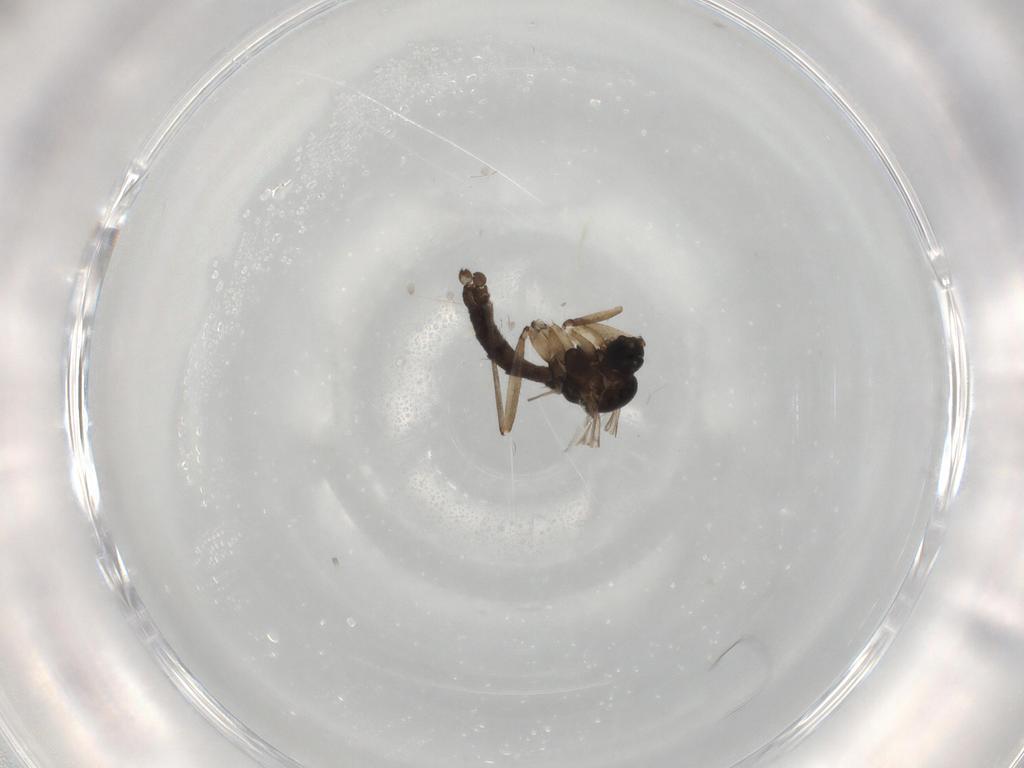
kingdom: Animalia
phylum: Arthropoda
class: Insecta
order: Diptera
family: Sciaridae
